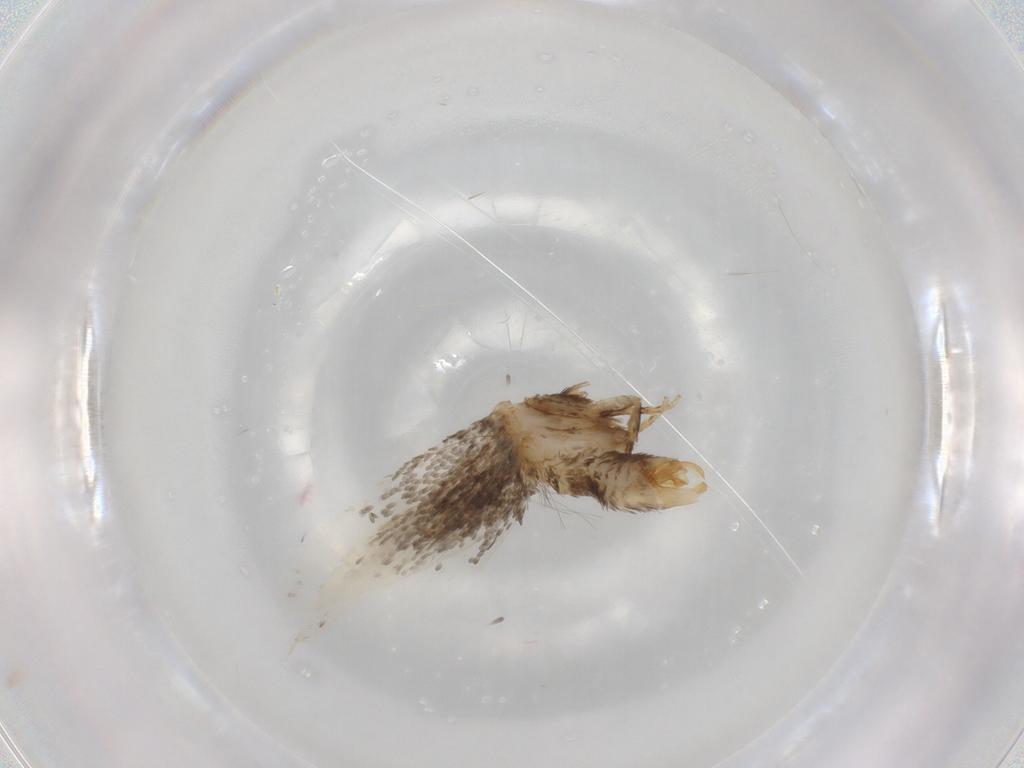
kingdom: Animalia
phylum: Arthropoda
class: Insecta
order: Lepidoptera
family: Tineidae
